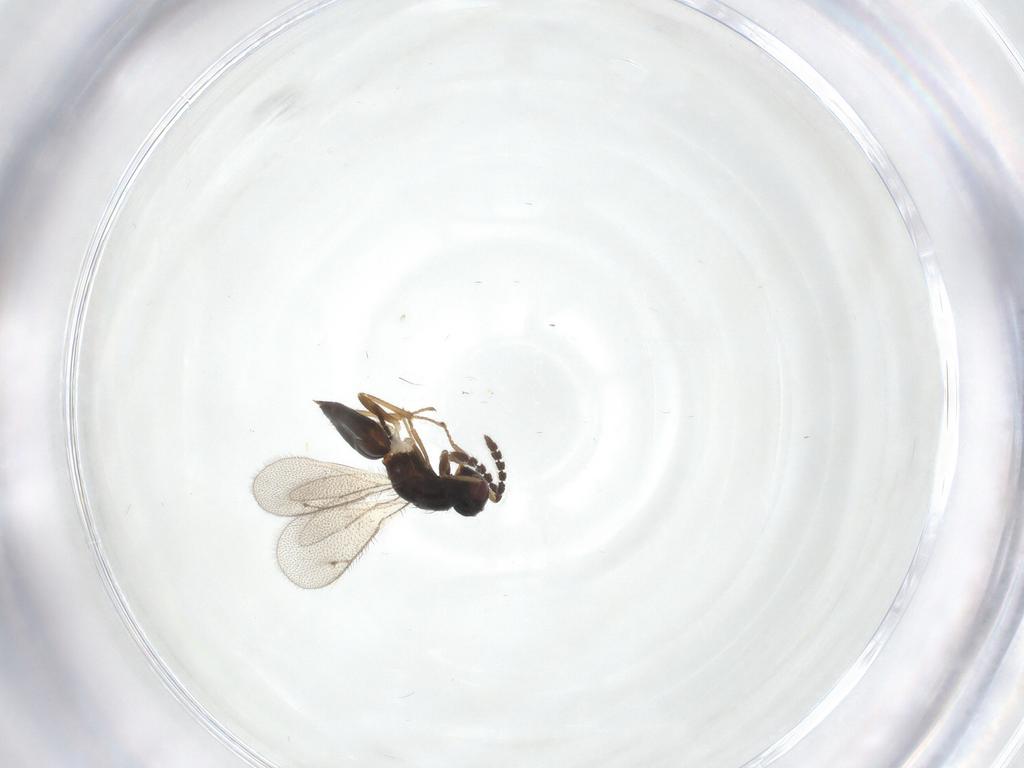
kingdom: Animalia
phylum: Arthropoda
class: Insecta
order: Hymenoptera
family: Eulophidae
